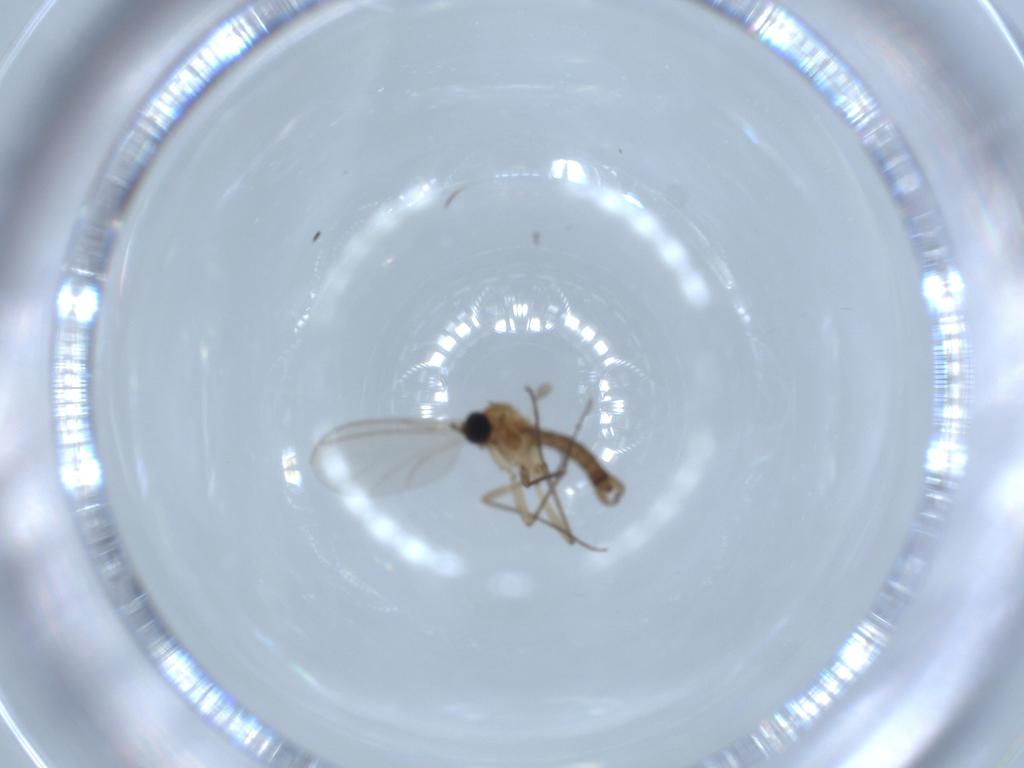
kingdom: Animalia
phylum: Arthropoda
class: Insecta
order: Diptera
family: Sciaridae
